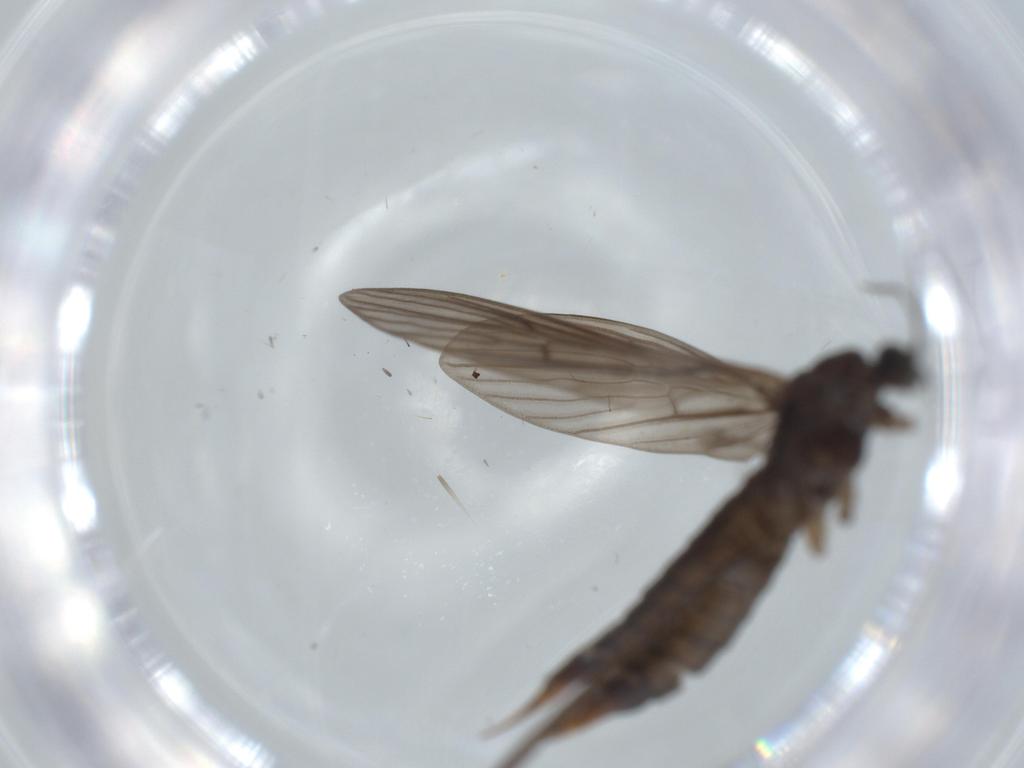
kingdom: Animalia
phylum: Arthropoda
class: Insecta
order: Diptera
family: Limoniidae
